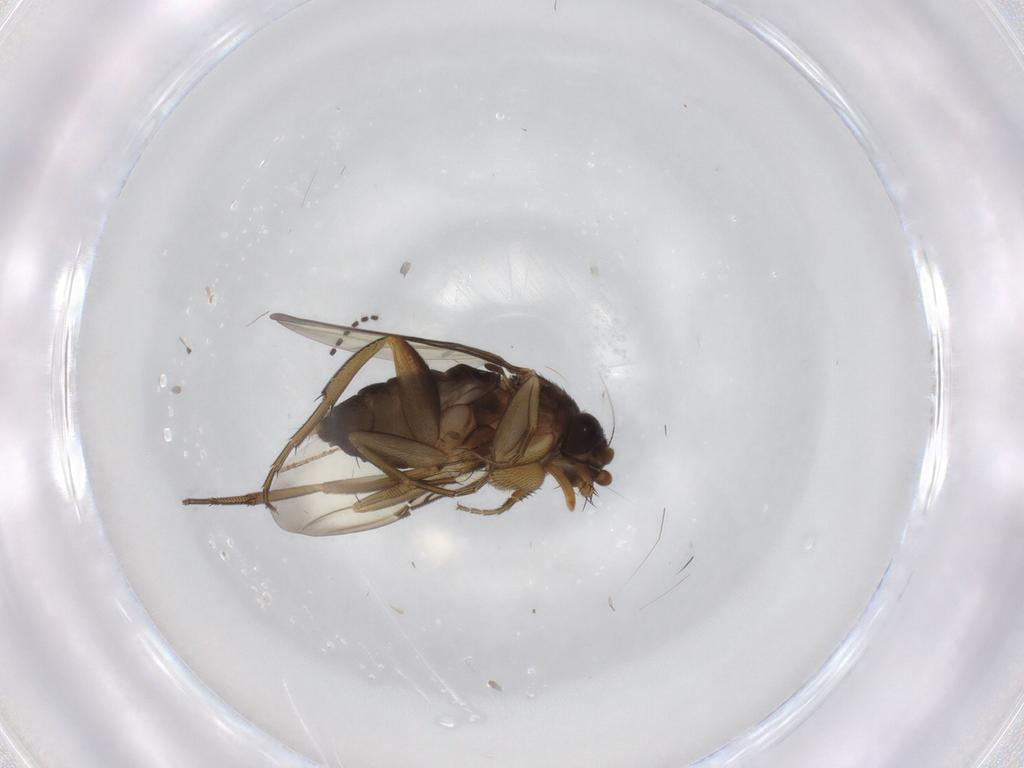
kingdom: Animalia
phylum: Arthropoda
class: Insecta
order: Diptera
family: Phoridae
